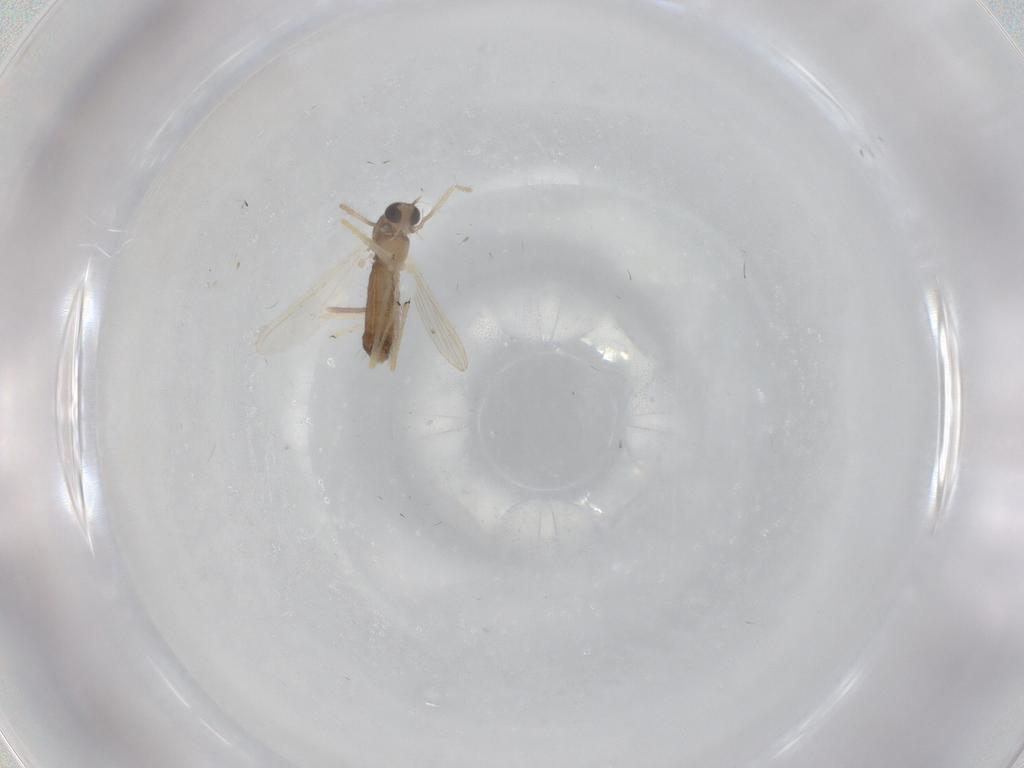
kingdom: Animalia
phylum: Arthropoda
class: Insecta
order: Diptera
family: Chironomidae
